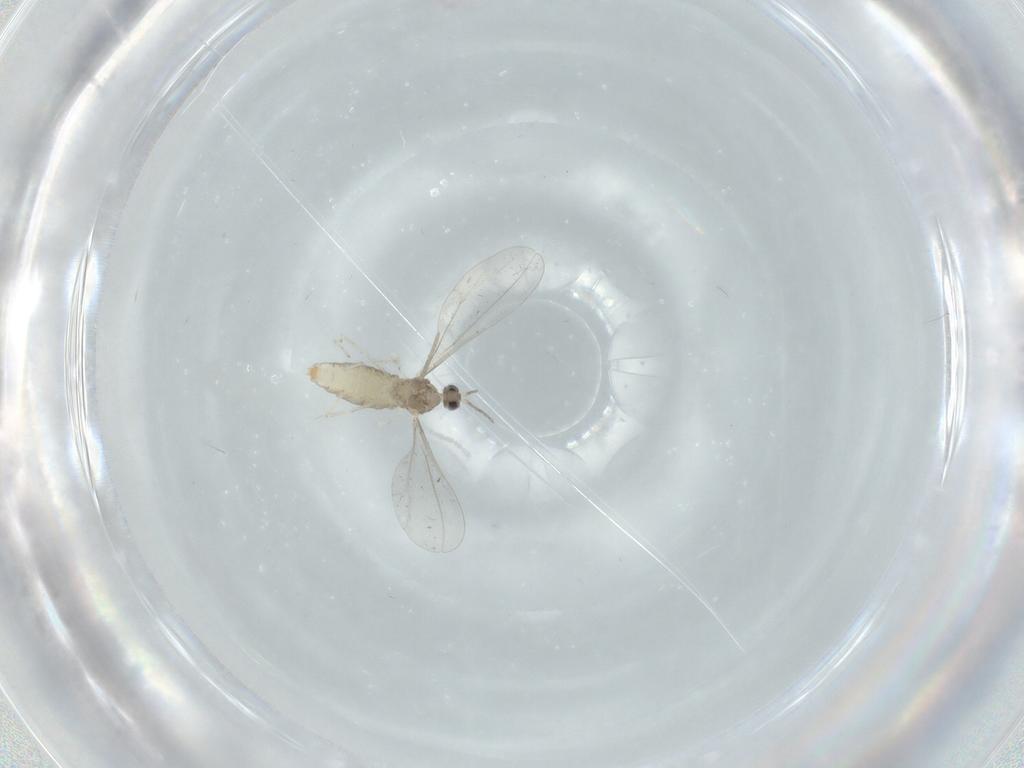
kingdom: Animalia
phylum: Arthropoda
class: Insecta
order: Diptera
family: Cecidomyiidae
